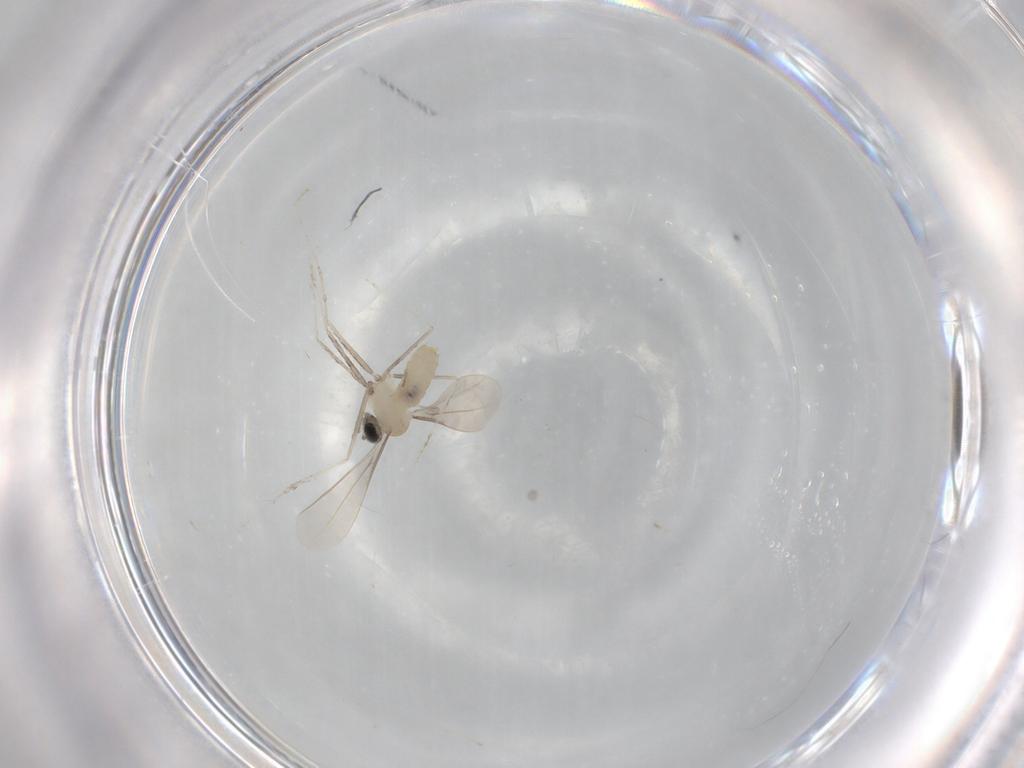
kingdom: Animalia
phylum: Arthropoda
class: Insecta
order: Diptera
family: Cecidomyiidae
